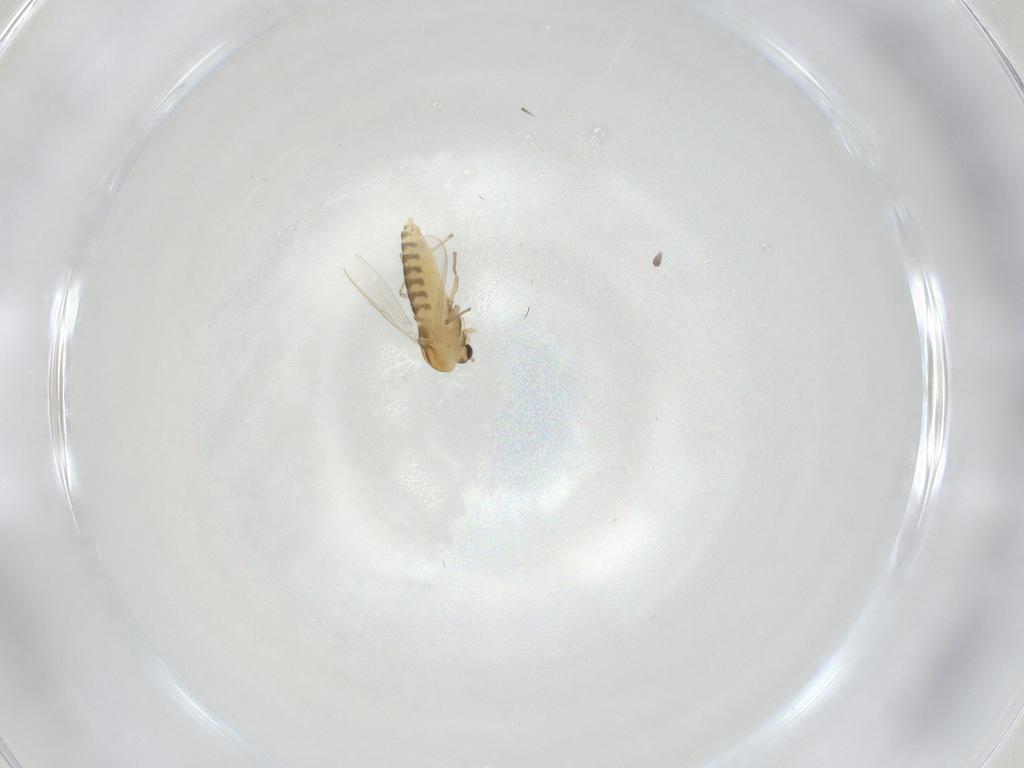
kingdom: Animalia
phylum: Arthropoda
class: Insecta
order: Diptera
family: Chironomidae
